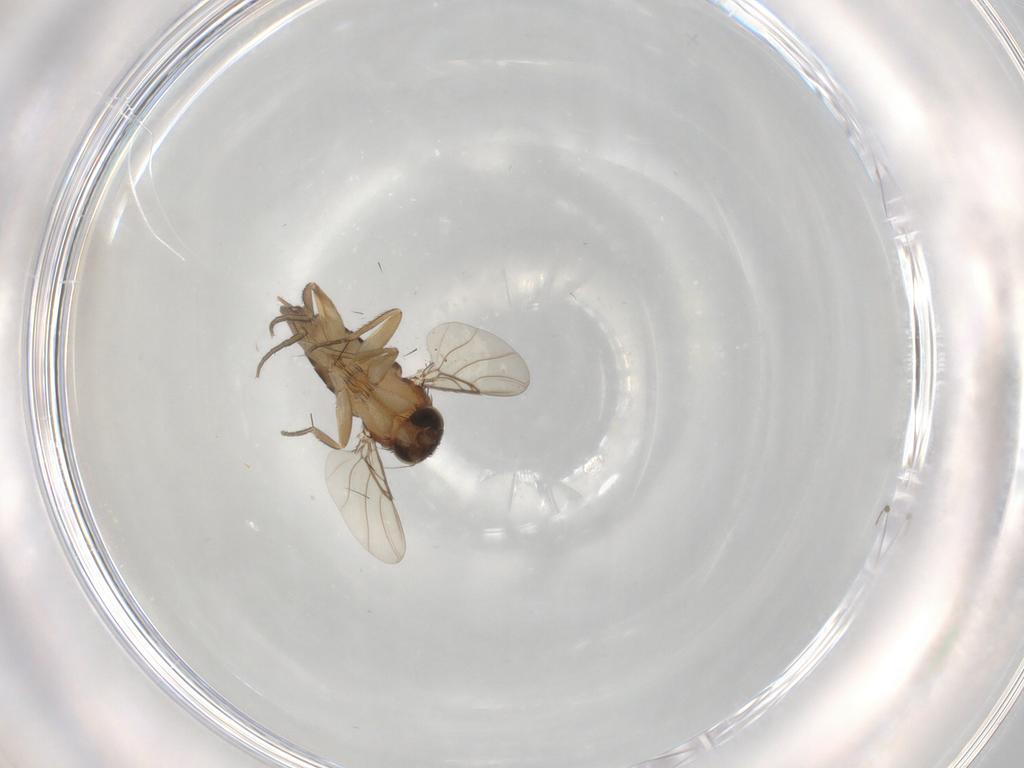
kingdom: Animalia
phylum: Arthropoda
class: Insecta
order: Diptera
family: Phoridae
